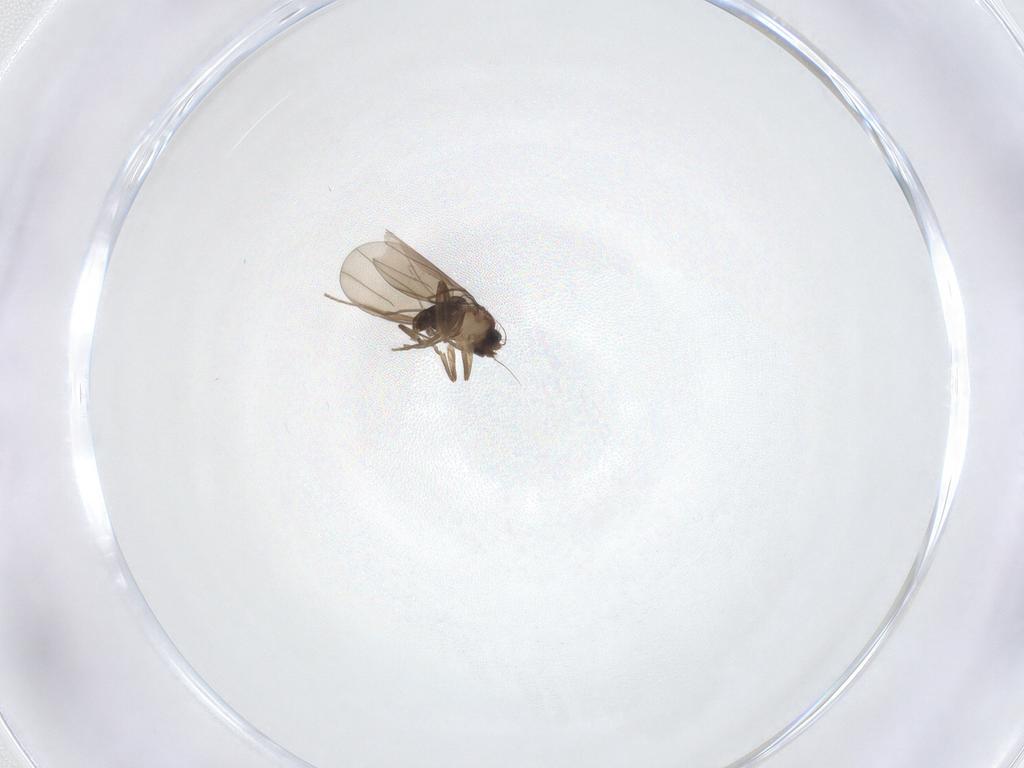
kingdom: Animalia
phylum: Arthropoda
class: Insecta
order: Diptera
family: Phoridae
